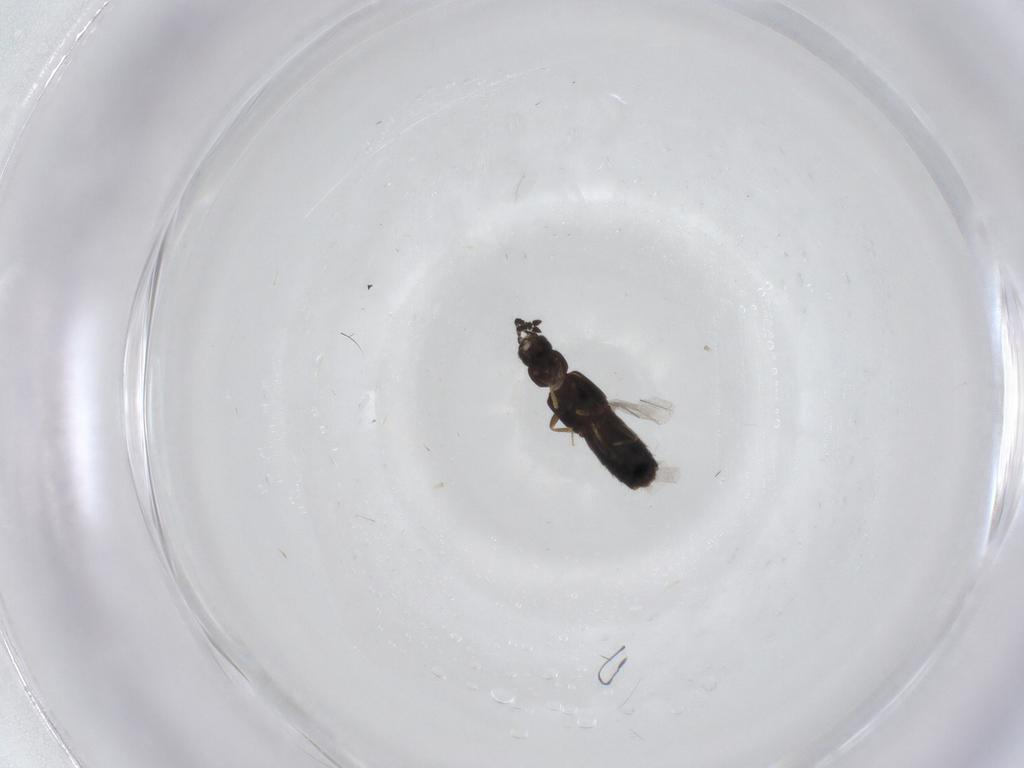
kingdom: Animalia
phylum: Arthropoda
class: Insecta
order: Coleoptera
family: Staphylinidae
